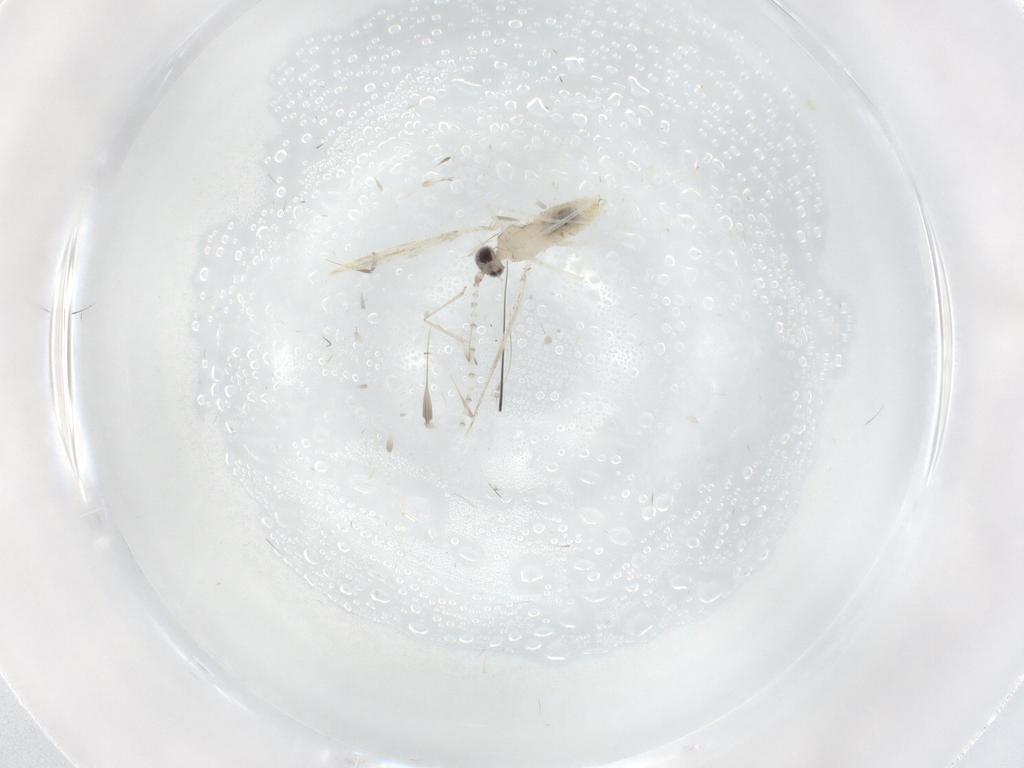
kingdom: Animalia
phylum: Arthropoda
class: Insecta
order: Diptera
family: Cecidomyiidae
